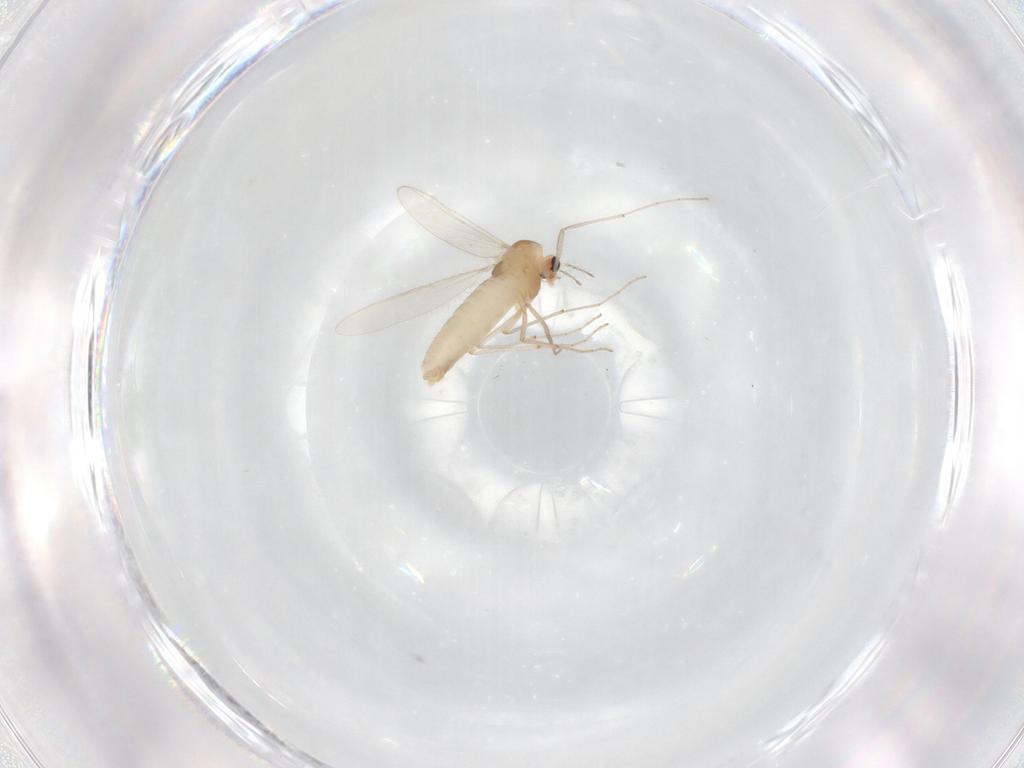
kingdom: Animalia
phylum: Arthropoda
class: Insecta
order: Diptera
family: Chironomidae
